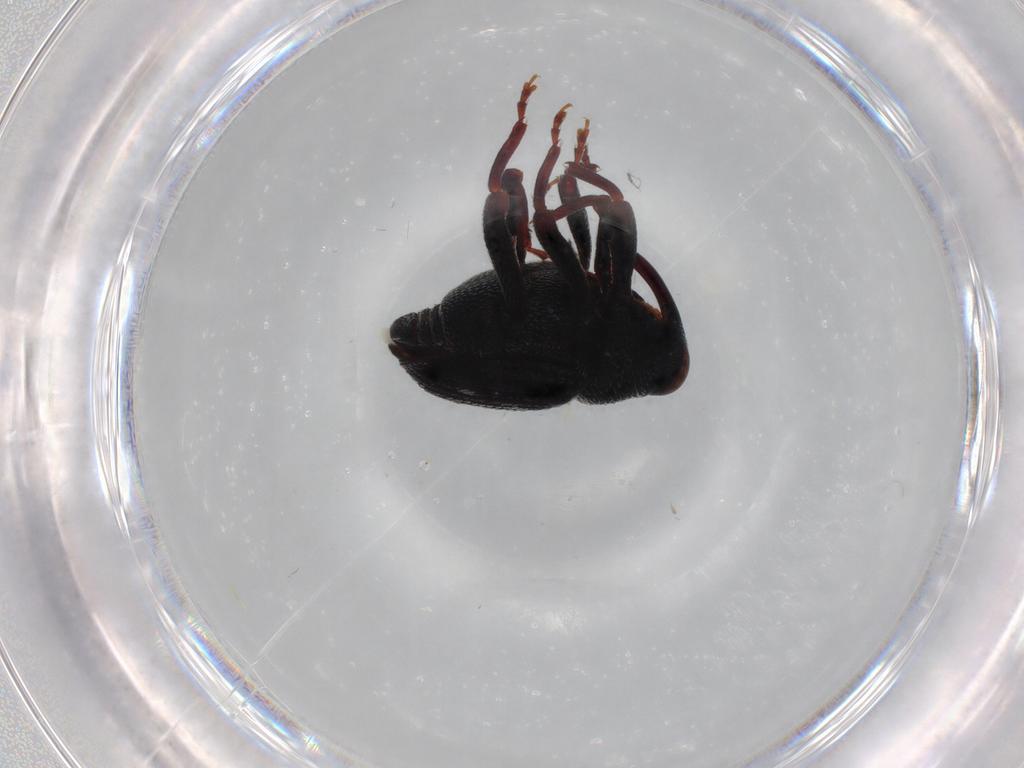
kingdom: Animalia
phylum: Arthropoda
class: Insecta
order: Coleoptera
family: Curculionidae
